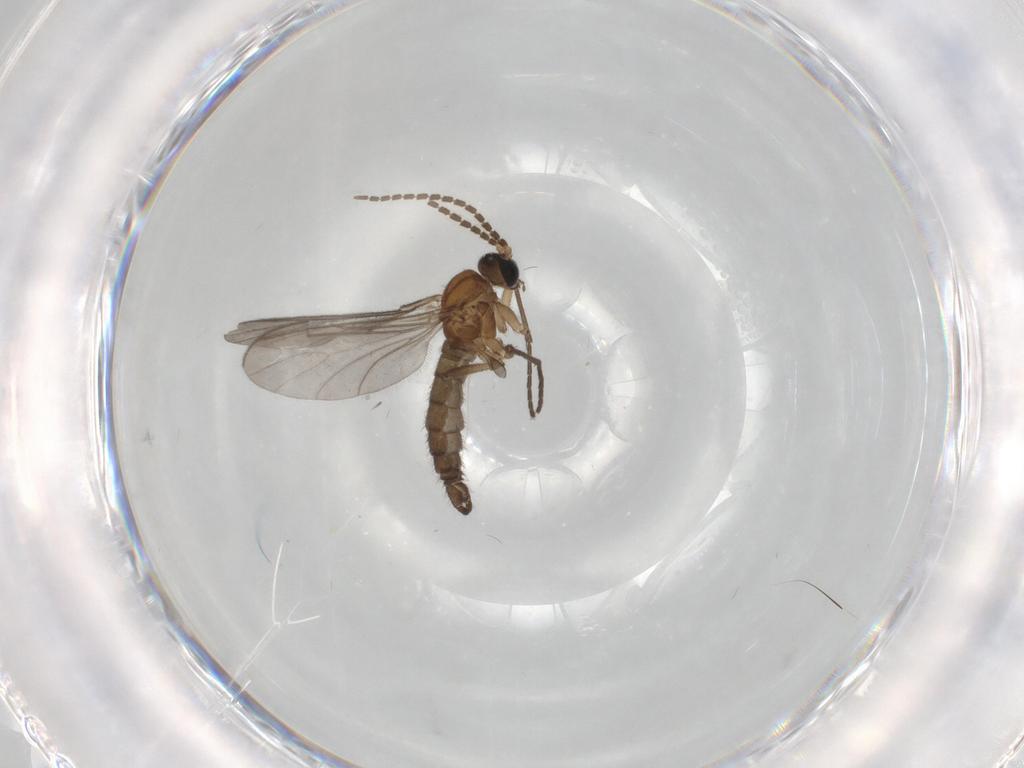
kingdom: Animalia
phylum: Arthropoda
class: Insecta
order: Diptera
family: Sciaridae
